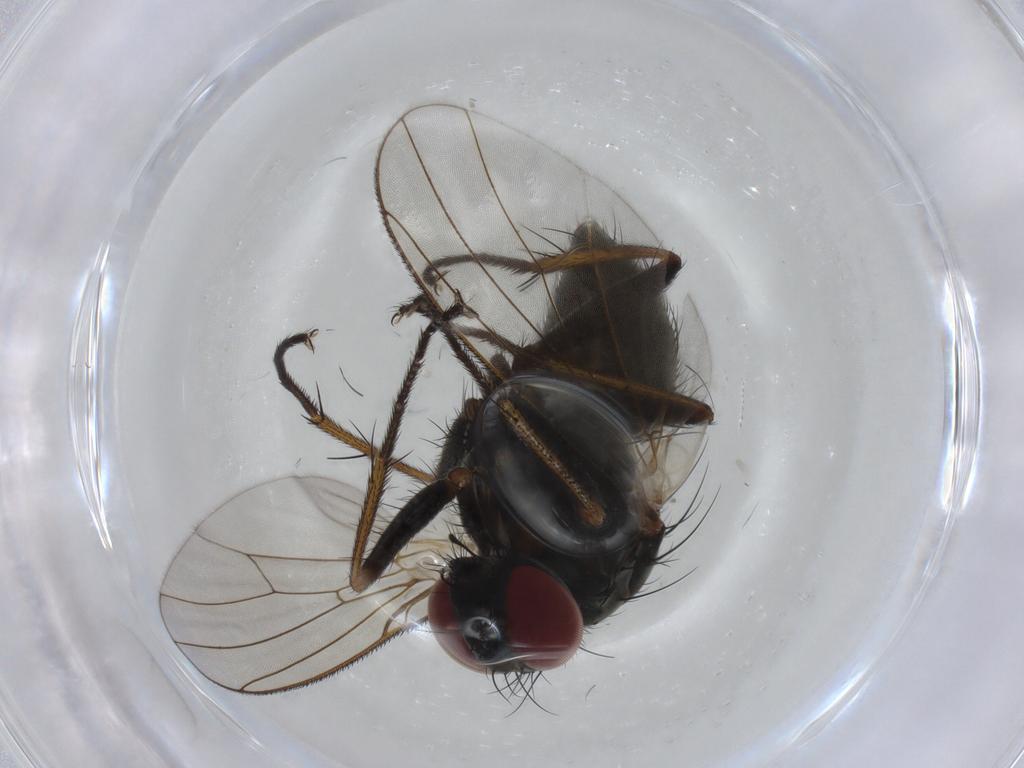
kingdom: Animalia
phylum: Arthropoda
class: Insecta
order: Diptera
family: Muscidae
